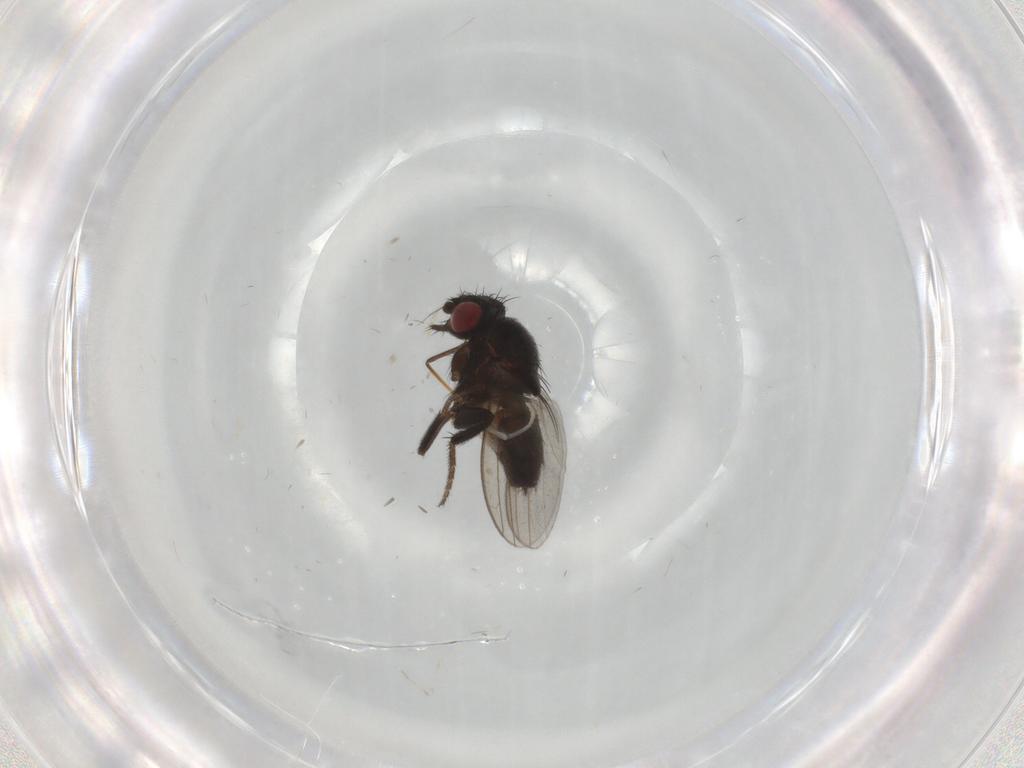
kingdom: Animalia
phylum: Arthropoda
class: Insecta
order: Diptera
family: Milichiidae
